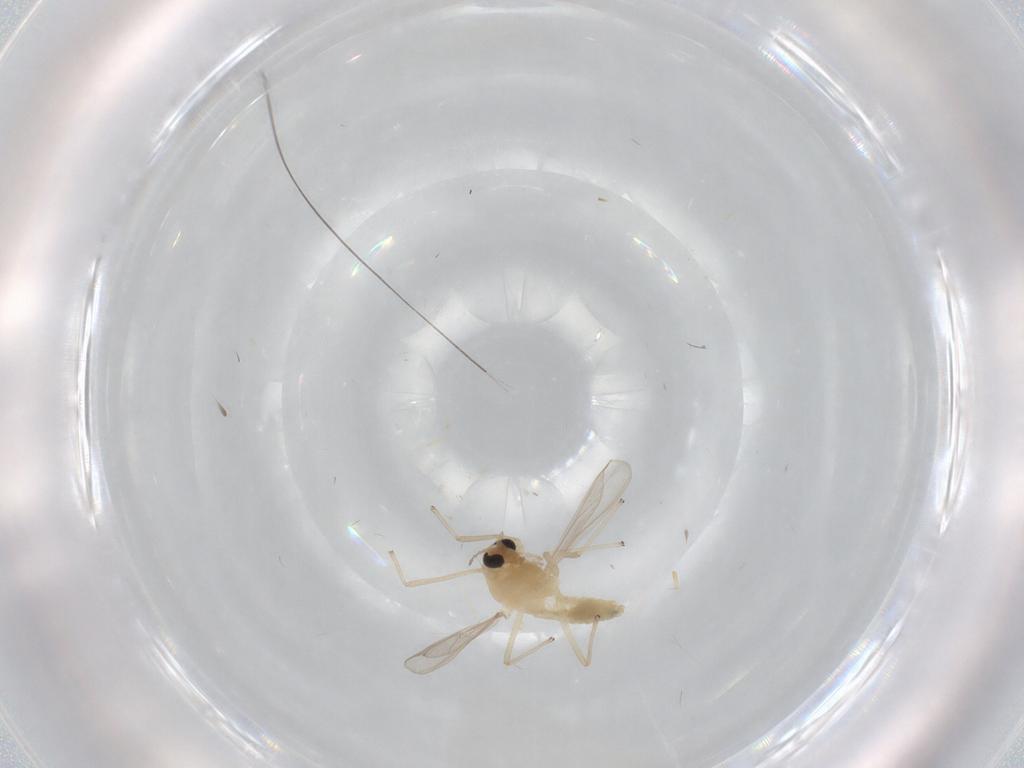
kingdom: Animalia
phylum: Arthropoda
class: Insecta
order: Diptera
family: Chironomidae
